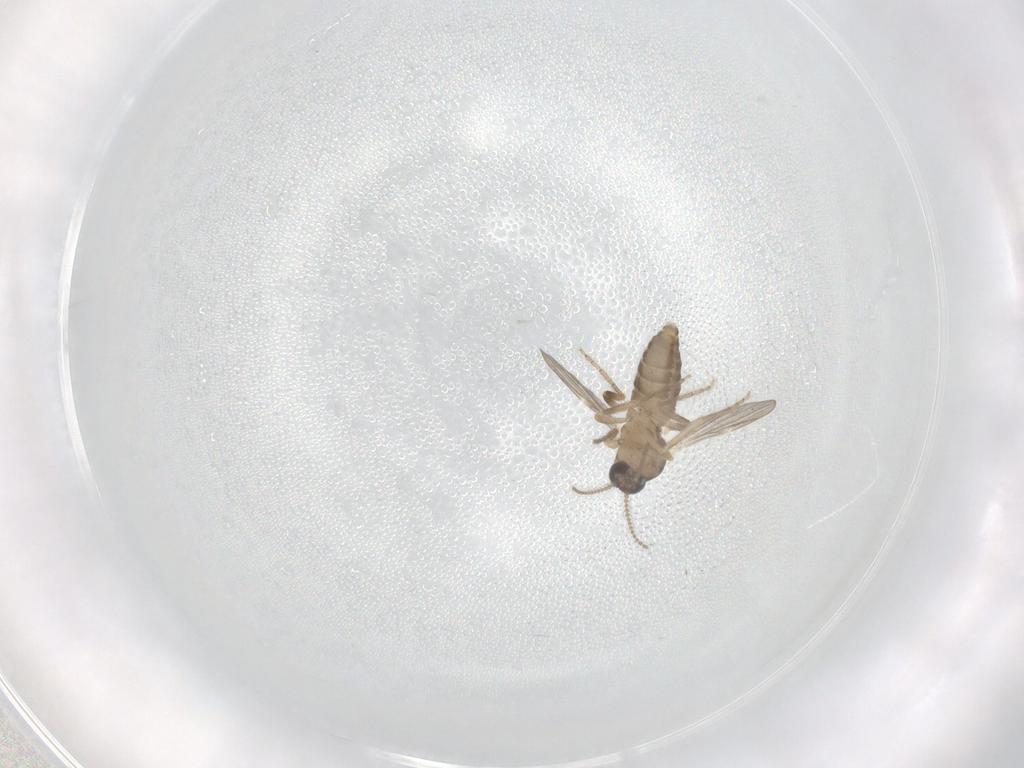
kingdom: Animalia
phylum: Arthropoda
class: Insecta
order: Diptera
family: Ceratopogonidae
